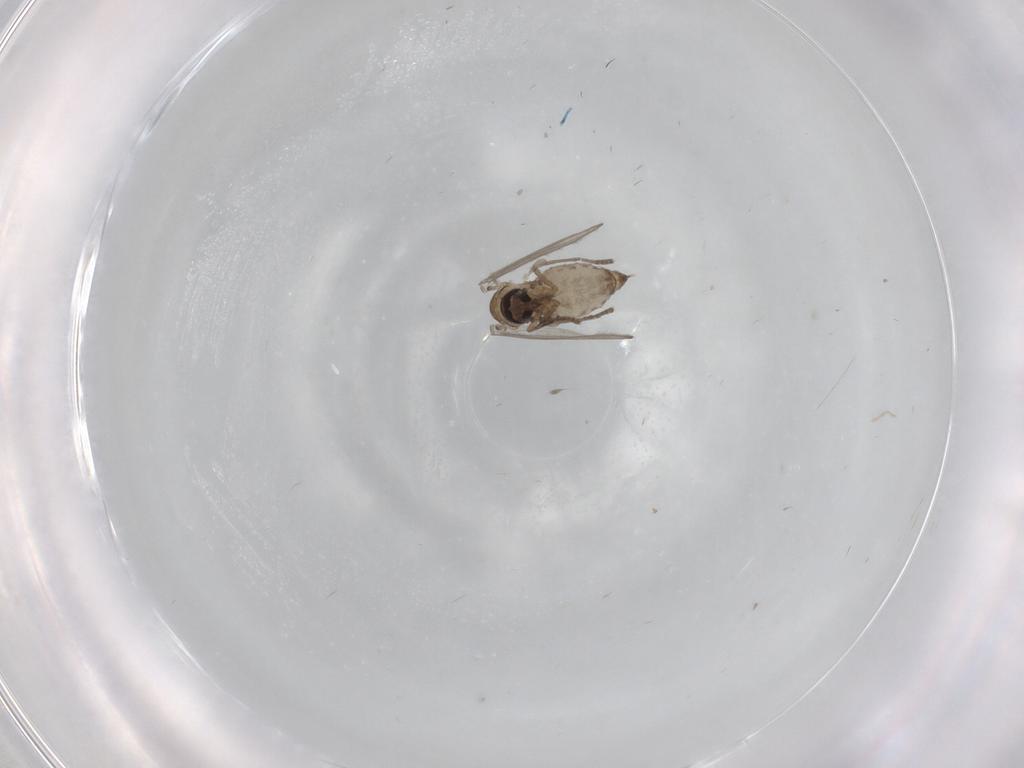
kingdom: Animalia
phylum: Arthropoda
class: Insecta
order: Diptera
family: Psychodidae
